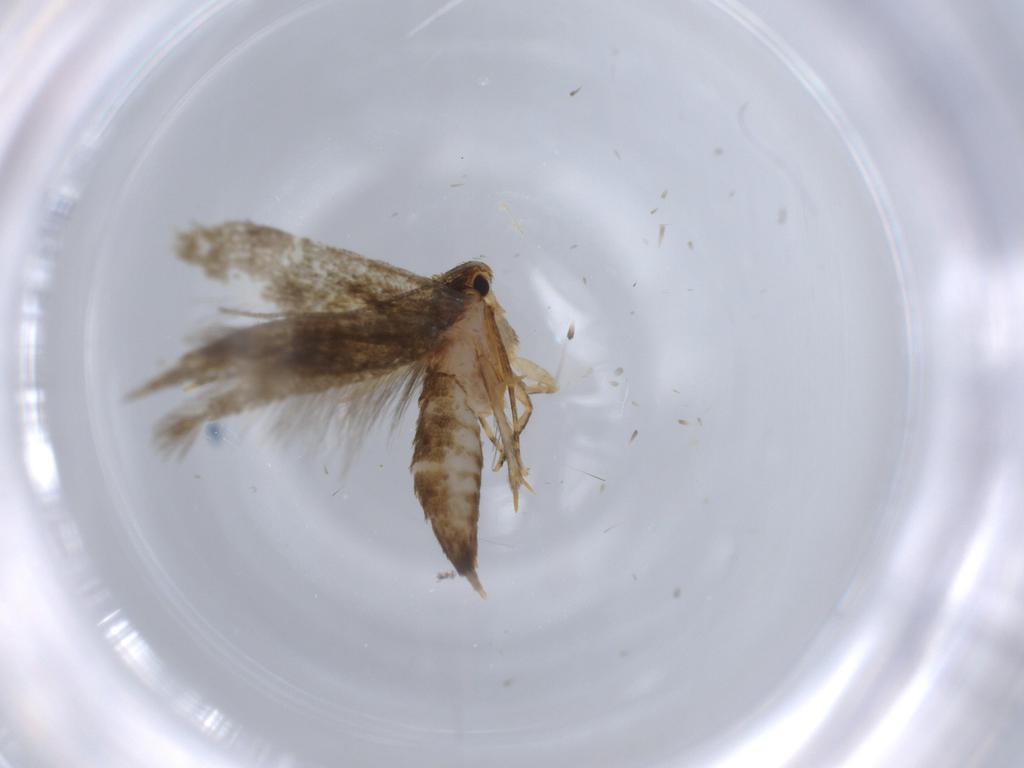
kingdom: Animalia
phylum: Arthropoda
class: Insecta
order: Lepidoptera
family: Tineidae
